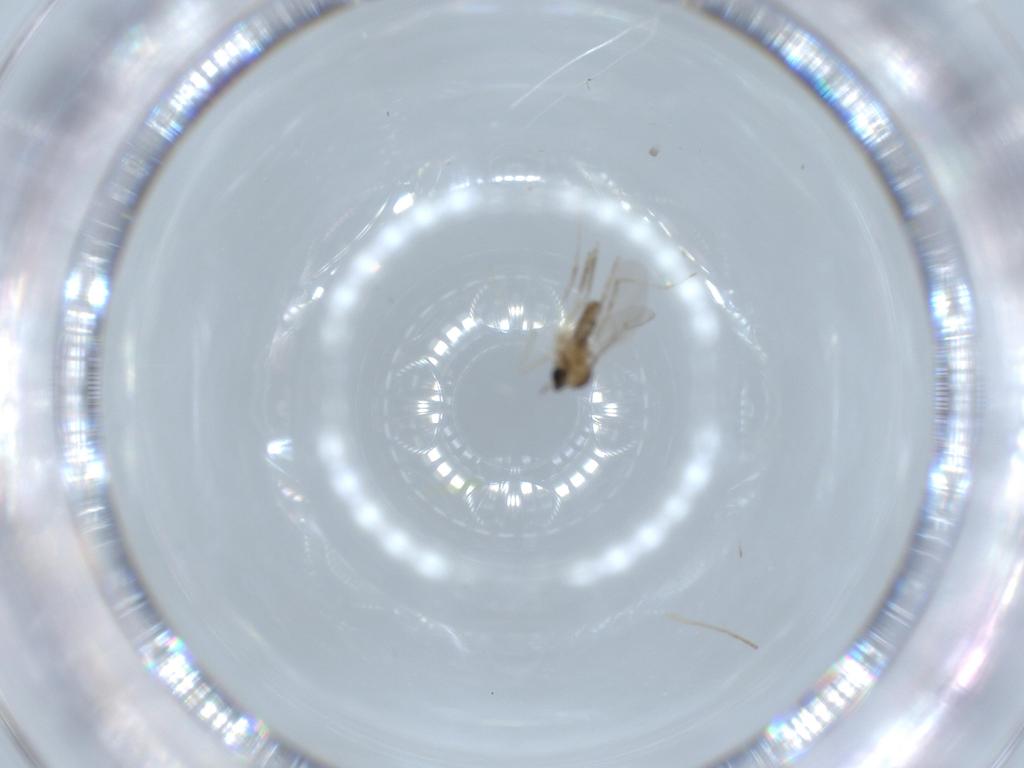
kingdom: Animalia
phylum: Arthropoda
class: Insecta
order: Diptera
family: Cecidomyiidae
